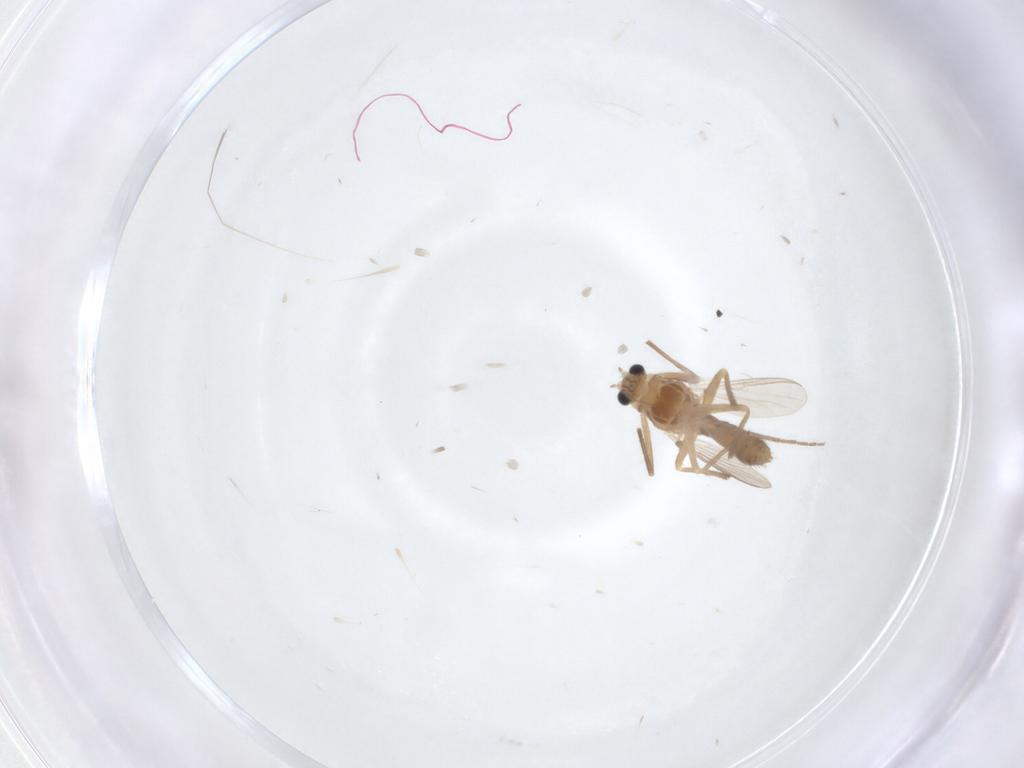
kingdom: Animalia
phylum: Arthropoda
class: Insecta
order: Diptera
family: Chironomidae
